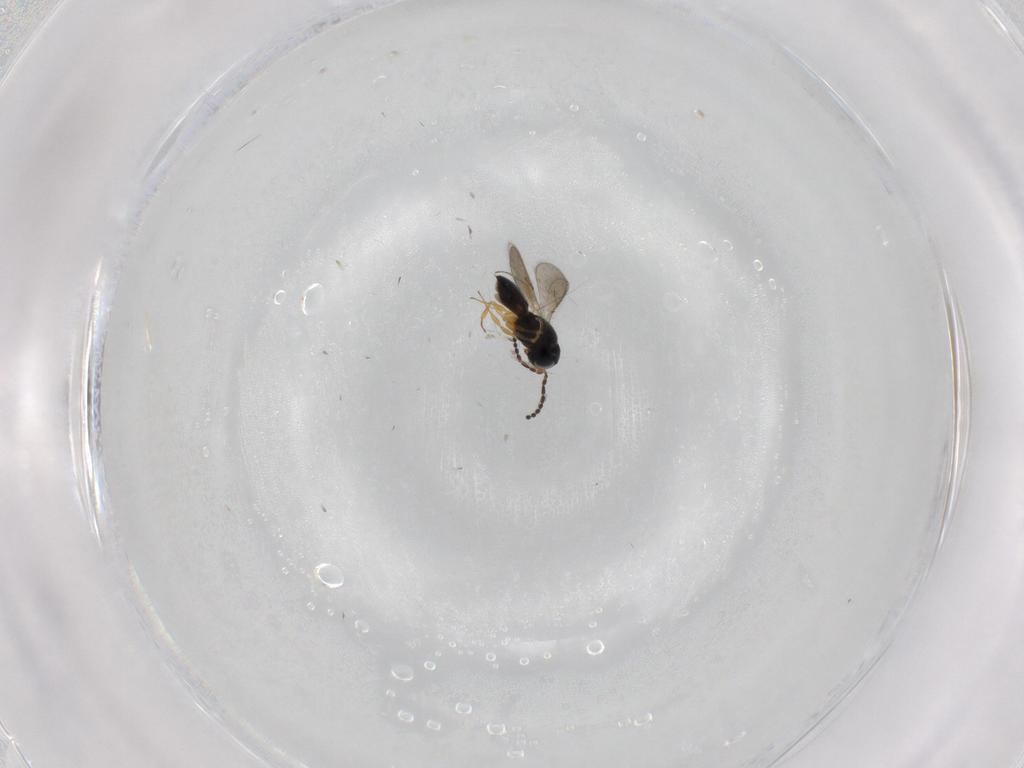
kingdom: Animalia
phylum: Arthropoda
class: Insecta
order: Hymenoptera
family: Scelionidae
